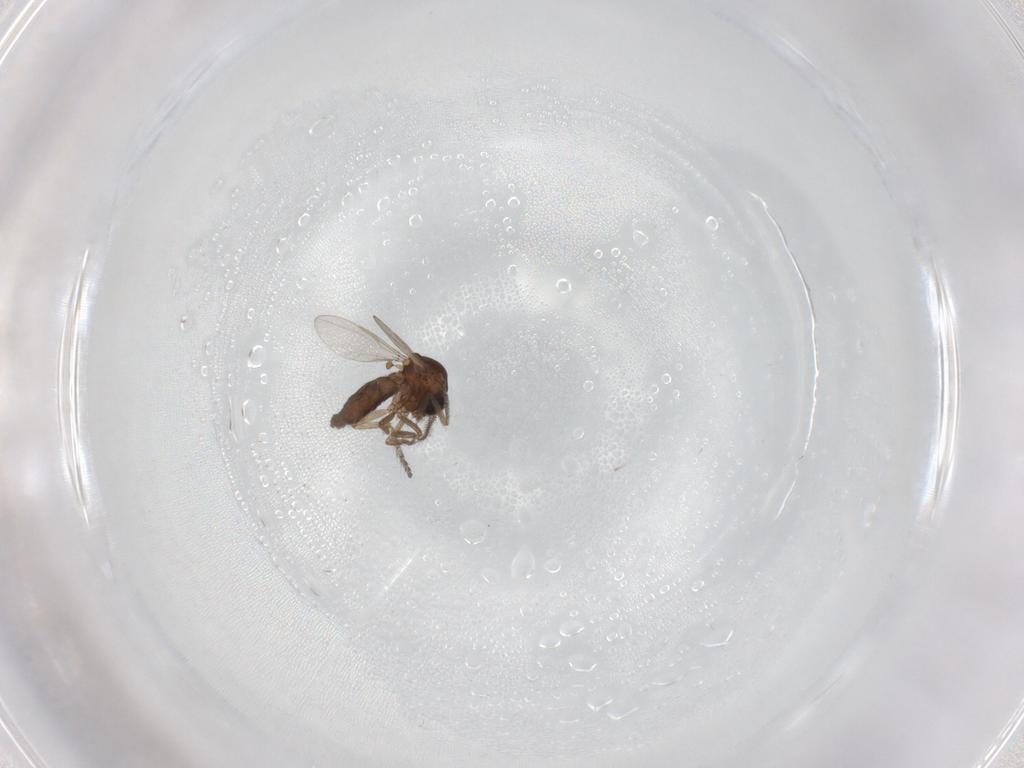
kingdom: Animalia
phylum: Arthropoda
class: Insecta
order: Diptera
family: Ceratopogonidae
